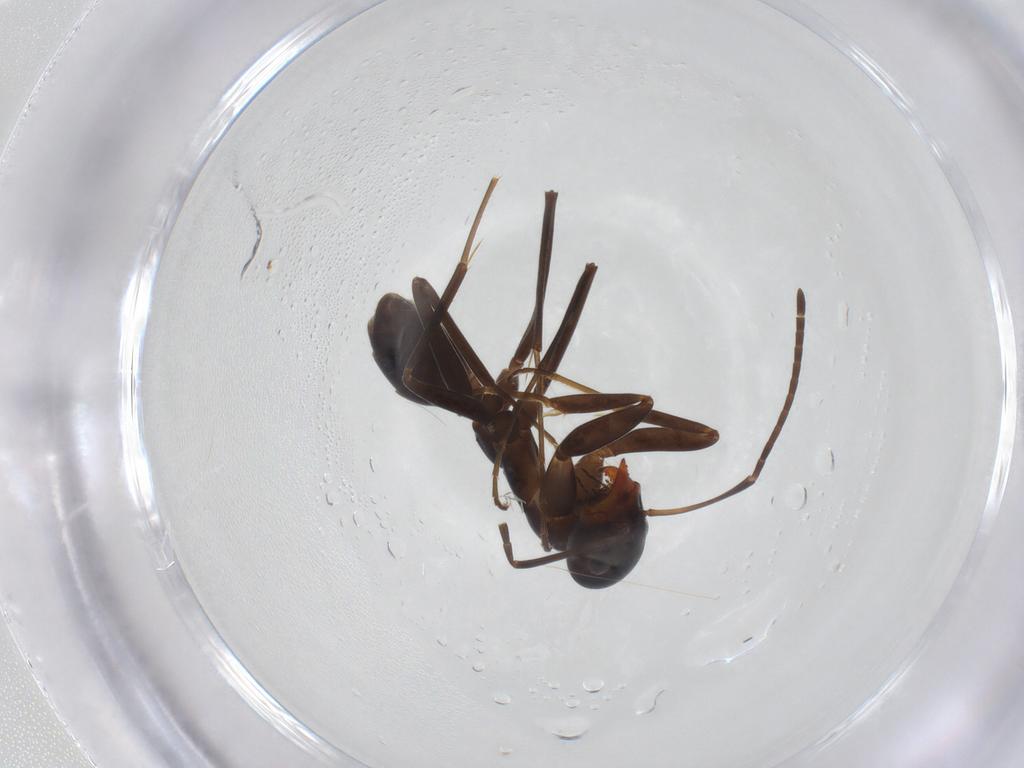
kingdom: Animalia
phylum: Arthropoda
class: Insecta
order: Hymenoptera
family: Formicidae
